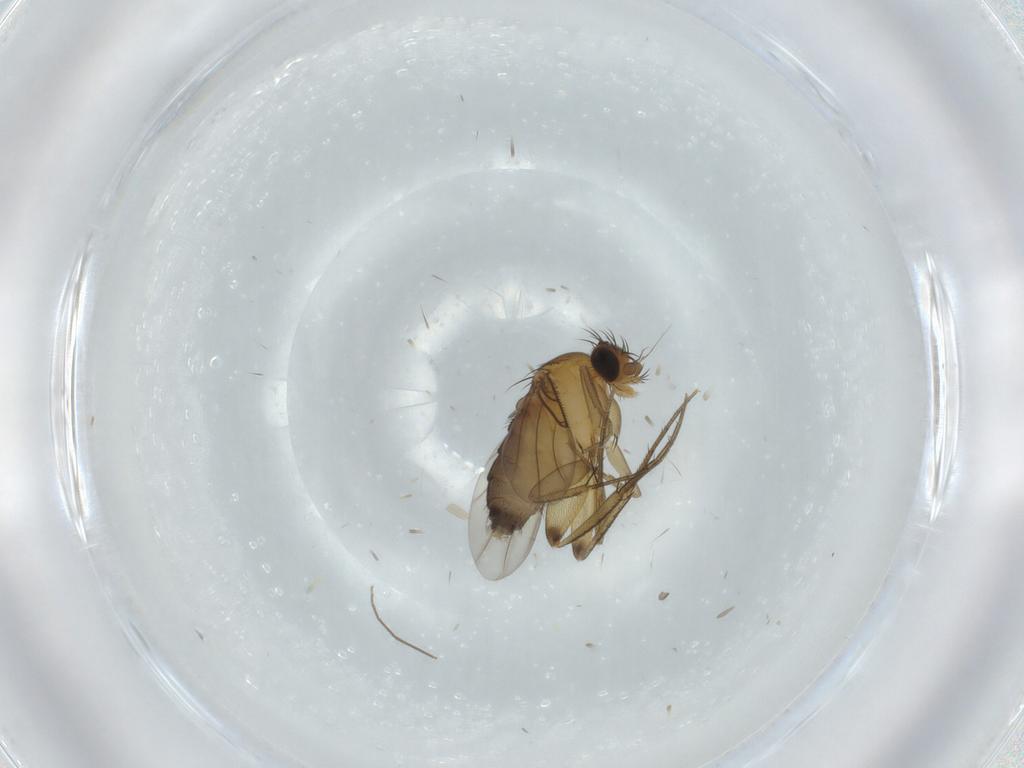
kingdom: Animalia
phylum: Arthropoda
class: Insecta
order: Diptera
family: Phoridae
